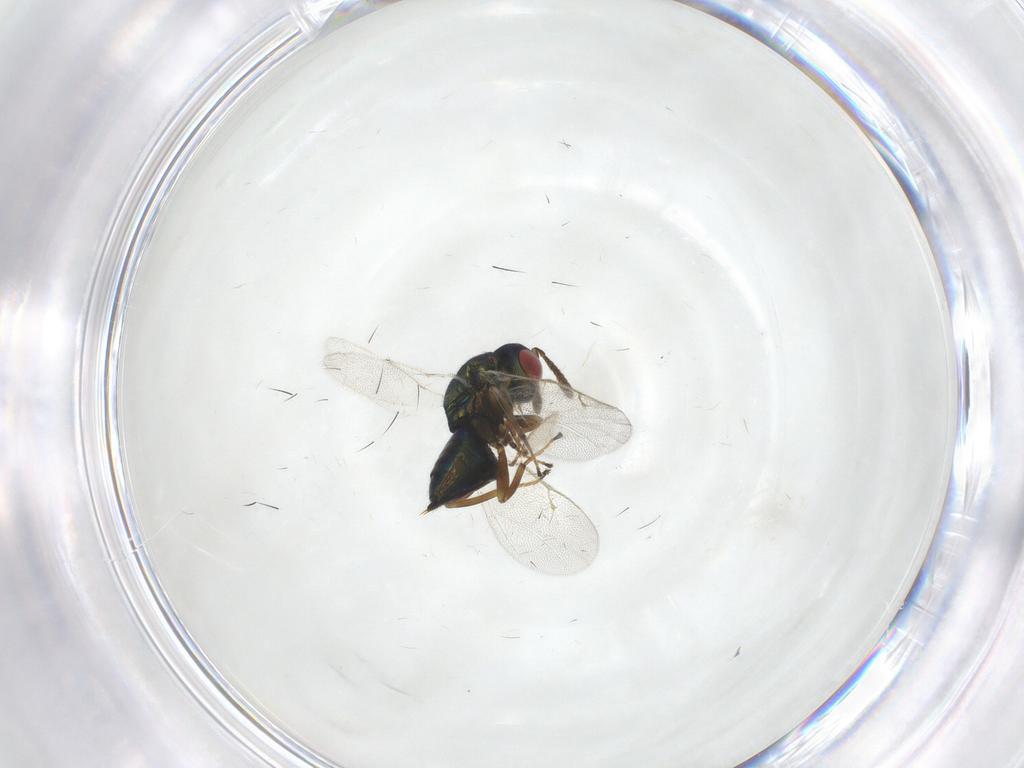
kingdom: Animalia
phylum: Arthropoda
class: Insecta
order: Hymenoptera
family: Pteromalidae
